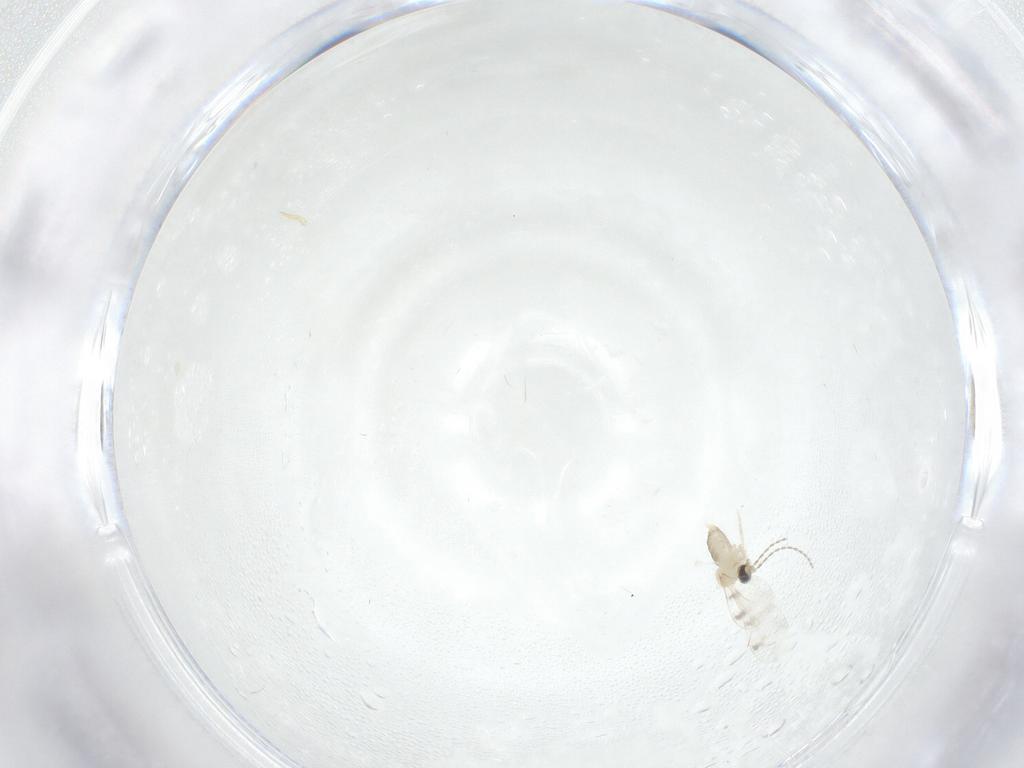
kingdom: Animalia
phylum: Arthropoda
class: Insecta
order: Diptera
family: Cecidomyiidae
